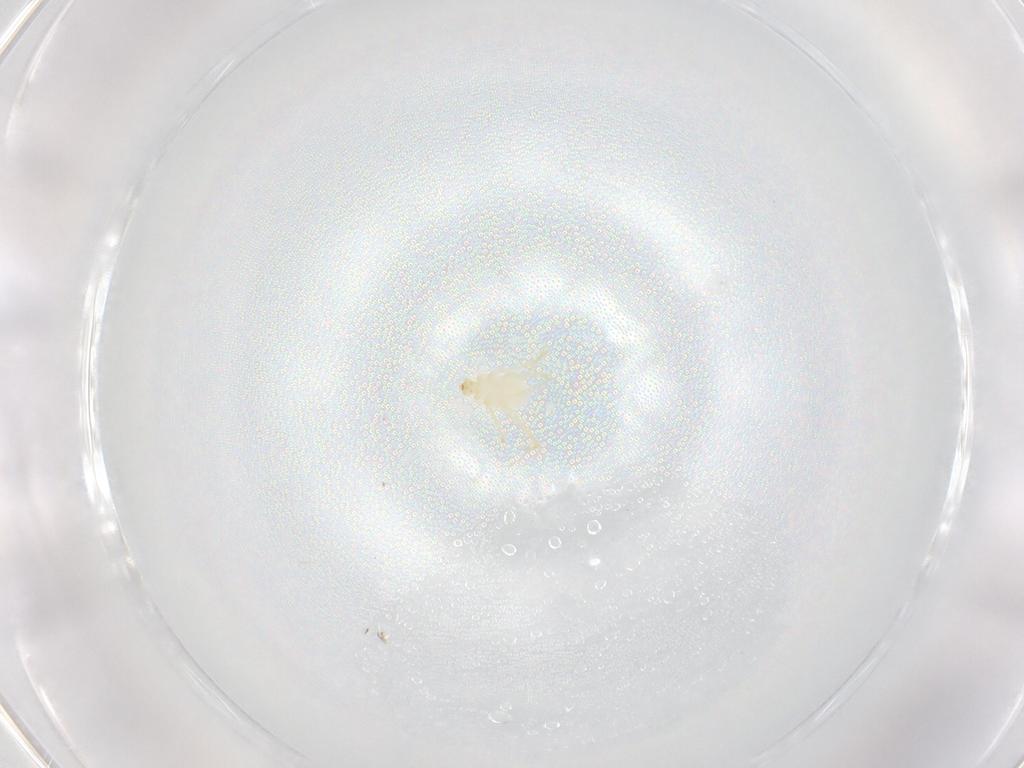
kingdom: Animalia
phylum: Arthropoda
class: Arachnida
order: Trombidiformes
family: Erythraeidae
